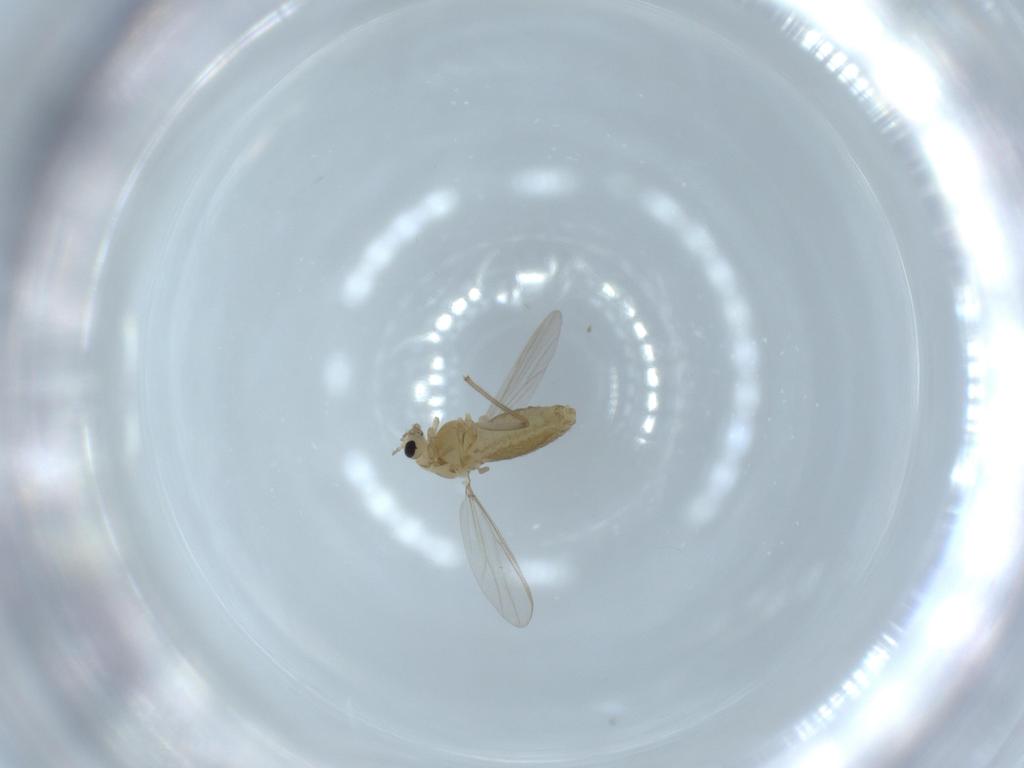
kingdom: Animalia
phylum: Arthropoda
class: Insecta
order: Diptera
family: Chironomidae
